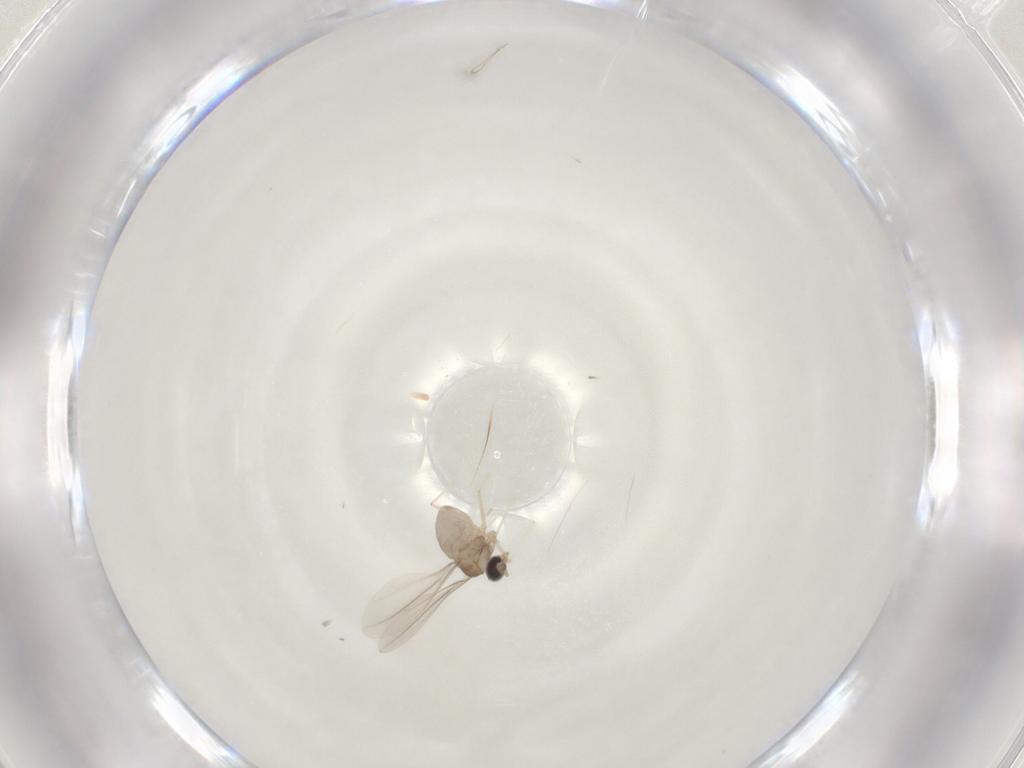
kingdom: Animalia
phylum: Arthropoda
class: Insecta
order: Diptera
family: Cecidomyiidae
